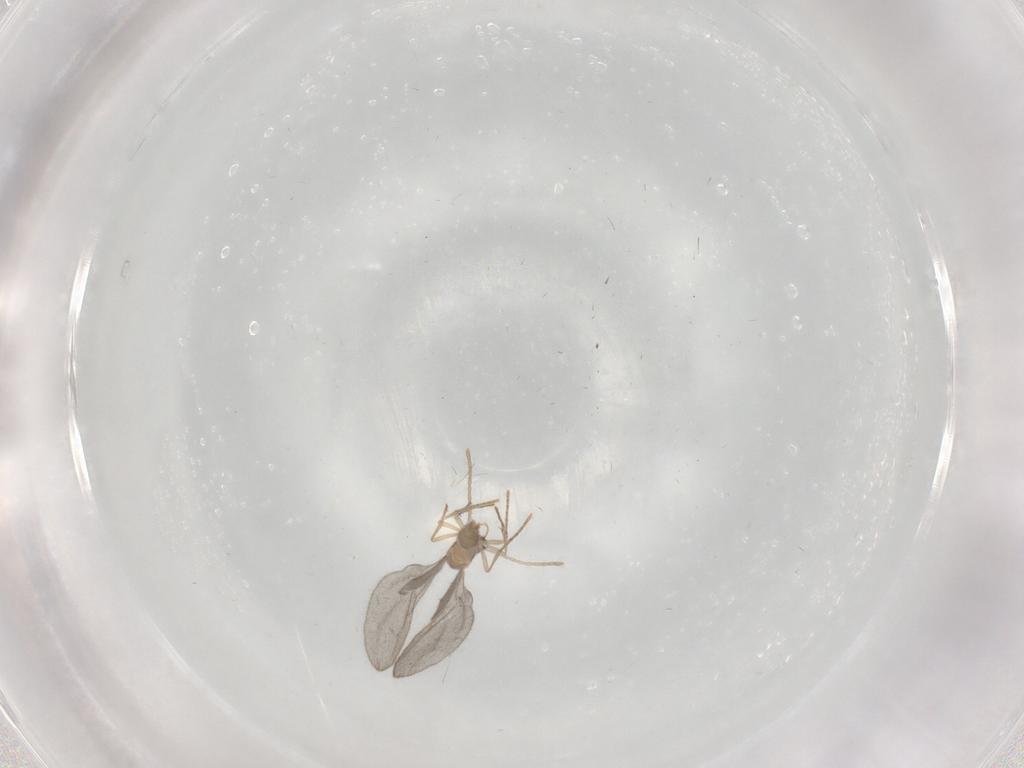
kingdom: Animalia
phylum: Arthropoda
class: Insecta
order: Hymenoptera
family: Formicidae
